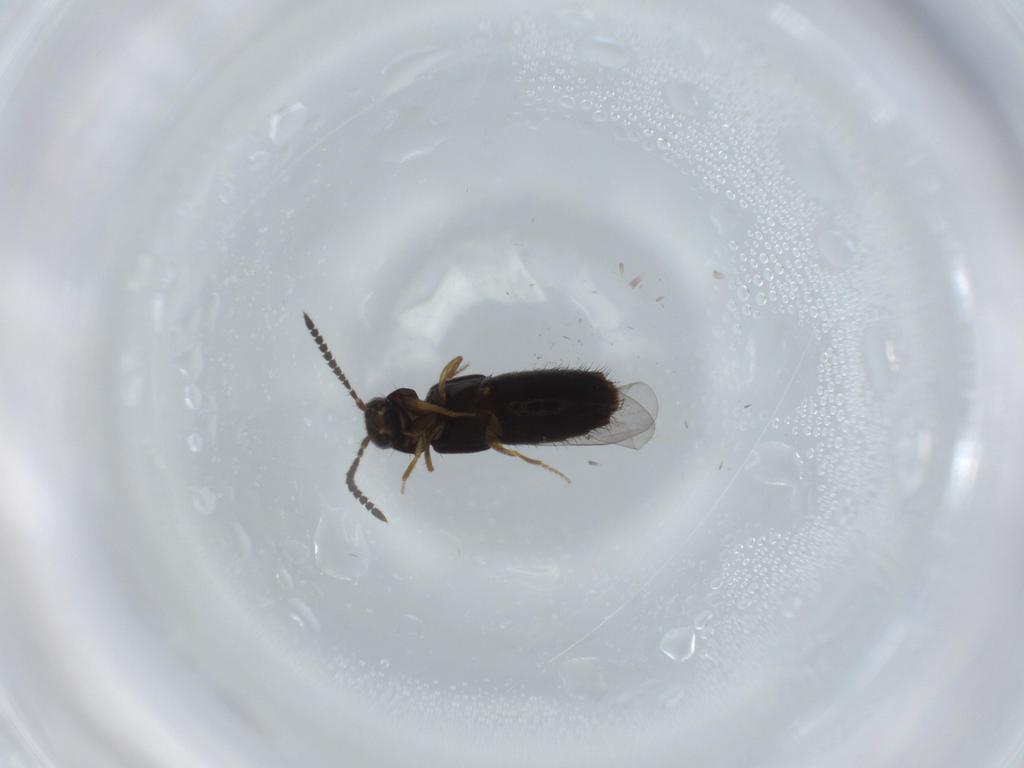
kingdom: Animalia
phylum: Arthropoda
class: Insecta
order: Coleoptera
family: Staphylinidae
